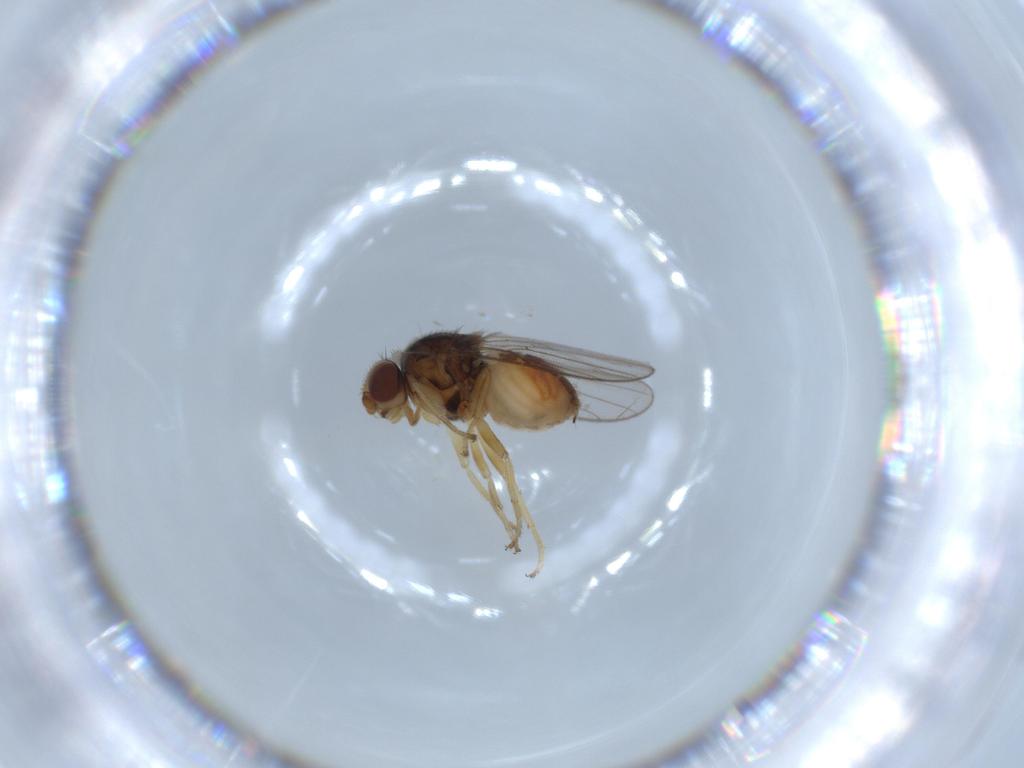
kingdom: Animalia
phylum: Arthropoda
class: Insecta
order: Diptera
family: Chloropidae
